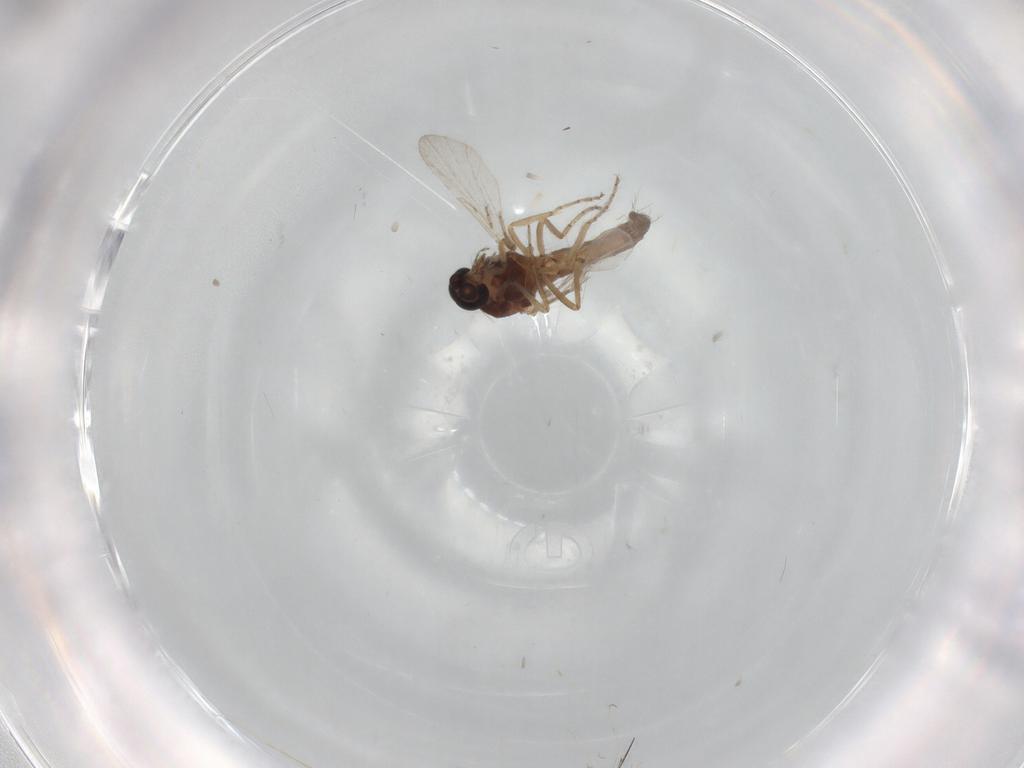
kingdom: Animalia
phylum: Arthropoda
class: Insecta
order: Diptera
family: Ceratopogonidae
